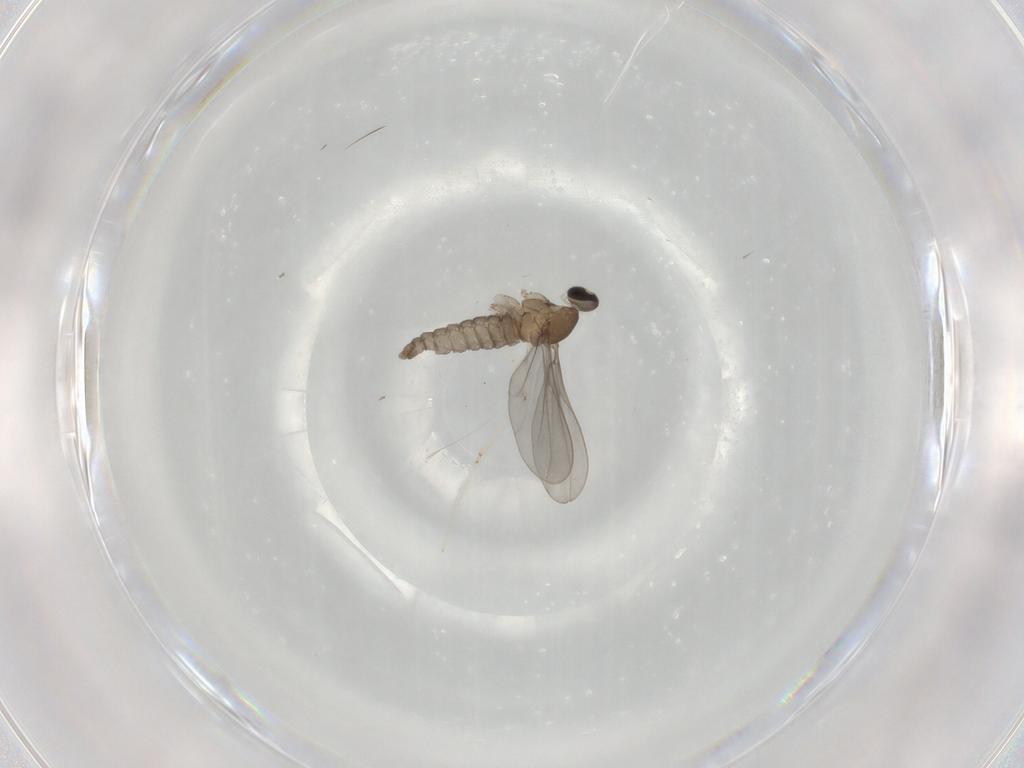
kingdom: Animalia
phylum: Arthropoda
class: Insecta
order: Diptera
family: Cecidomyiidae
